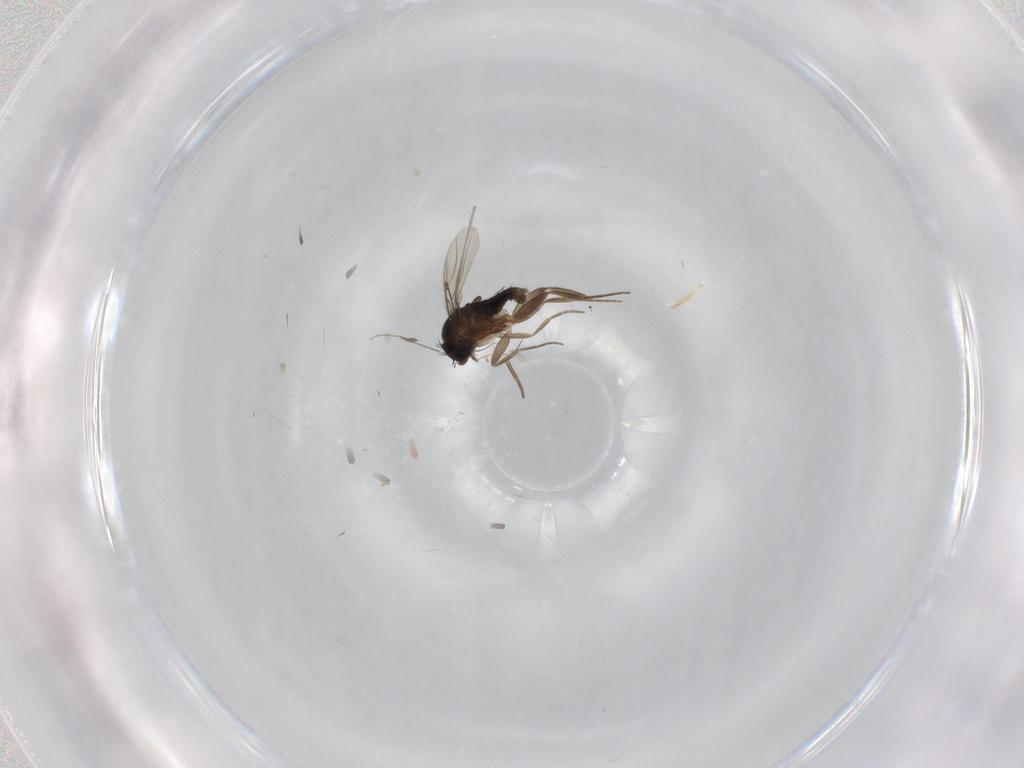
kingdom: Animalia
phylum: Arthropoda
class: Insecta
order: Diptera
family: Phoridae
